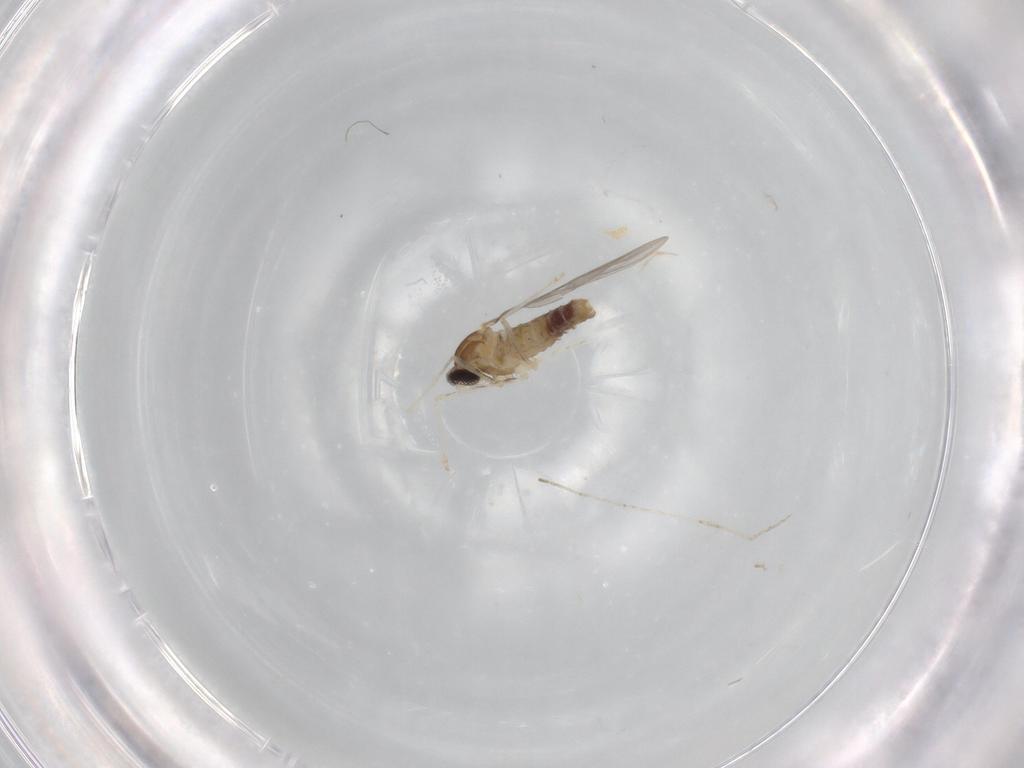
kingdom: Animalia
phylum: Arthropoda
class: Insecta
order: Diptera
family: Cecidomyiidae
